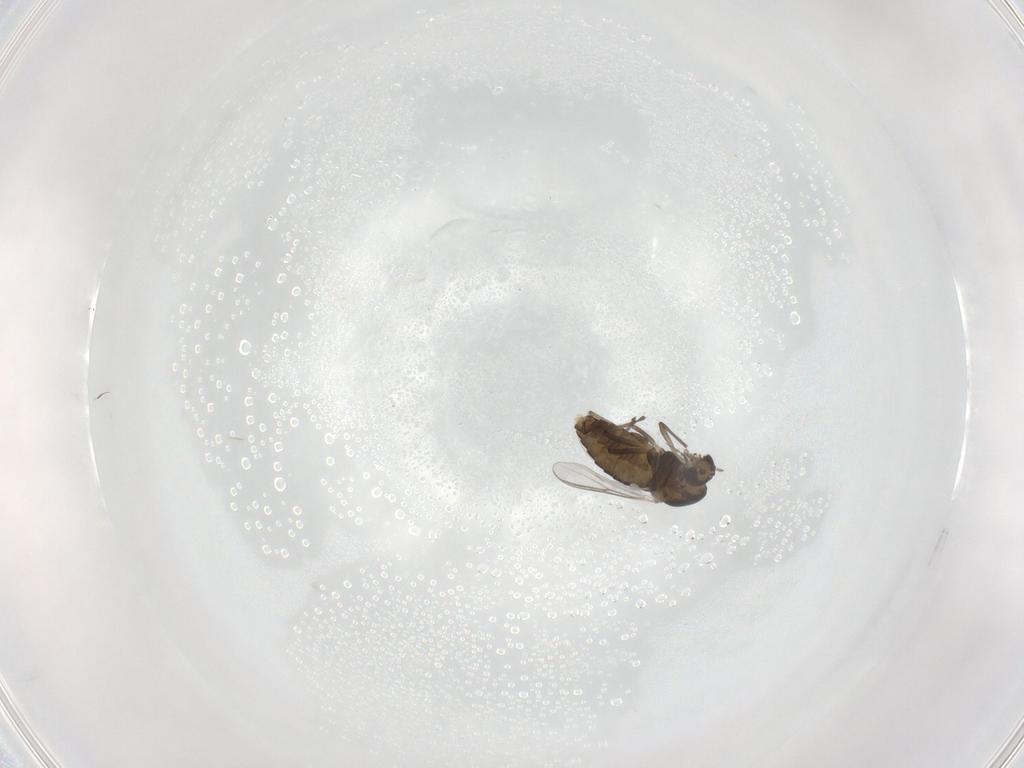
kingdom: Animalia
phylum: Arthropoda
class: Insecta
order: Diptera
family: Chironomidae
